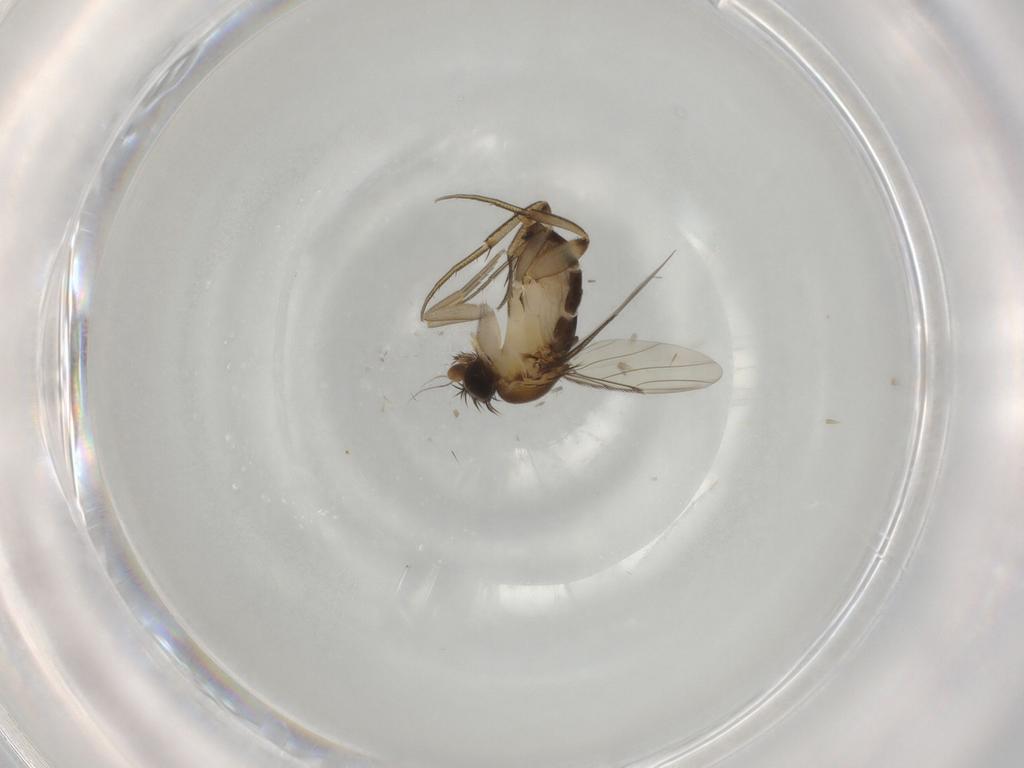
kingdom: Animalia
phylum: Arthropoda
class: Insecta
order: Diptera
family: Phoridae
